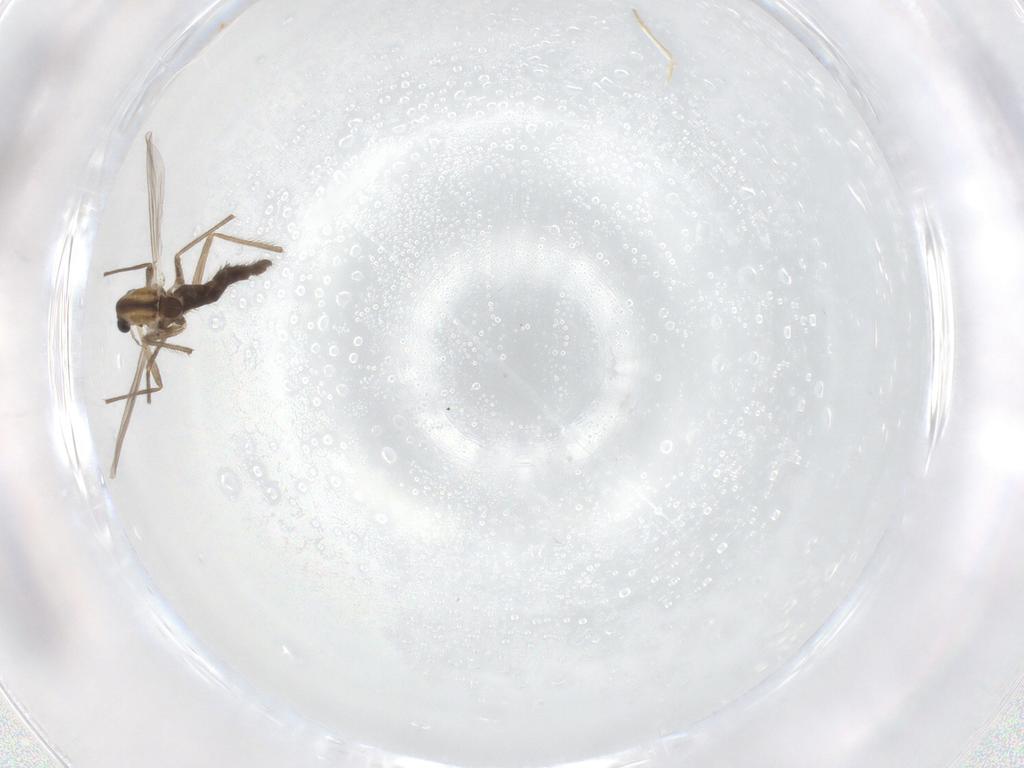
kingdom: Animalia
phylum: Arthropoda
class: Insecta
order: Diptera
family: Chironomidae
